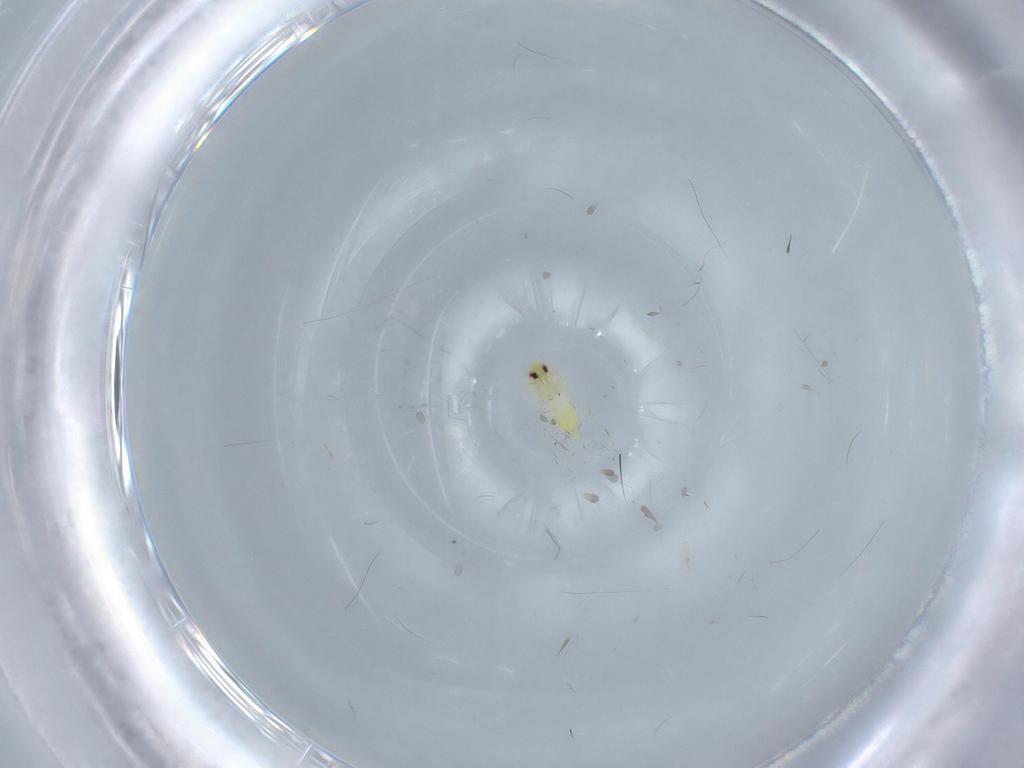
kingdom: Animalia
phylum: Arthropoda
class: Insecta
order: Hemiptera
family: Aleyrodidae
